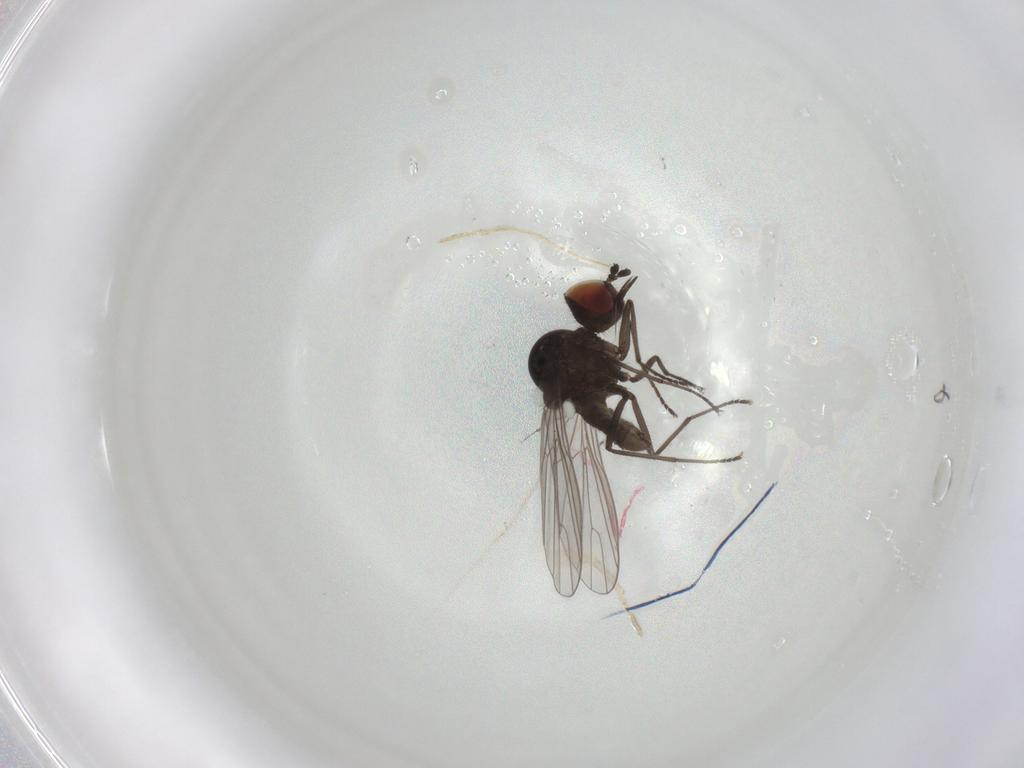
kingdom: Animalia
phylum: Arthropoda
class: Insecta
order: Diptera
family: Bombyliidae
